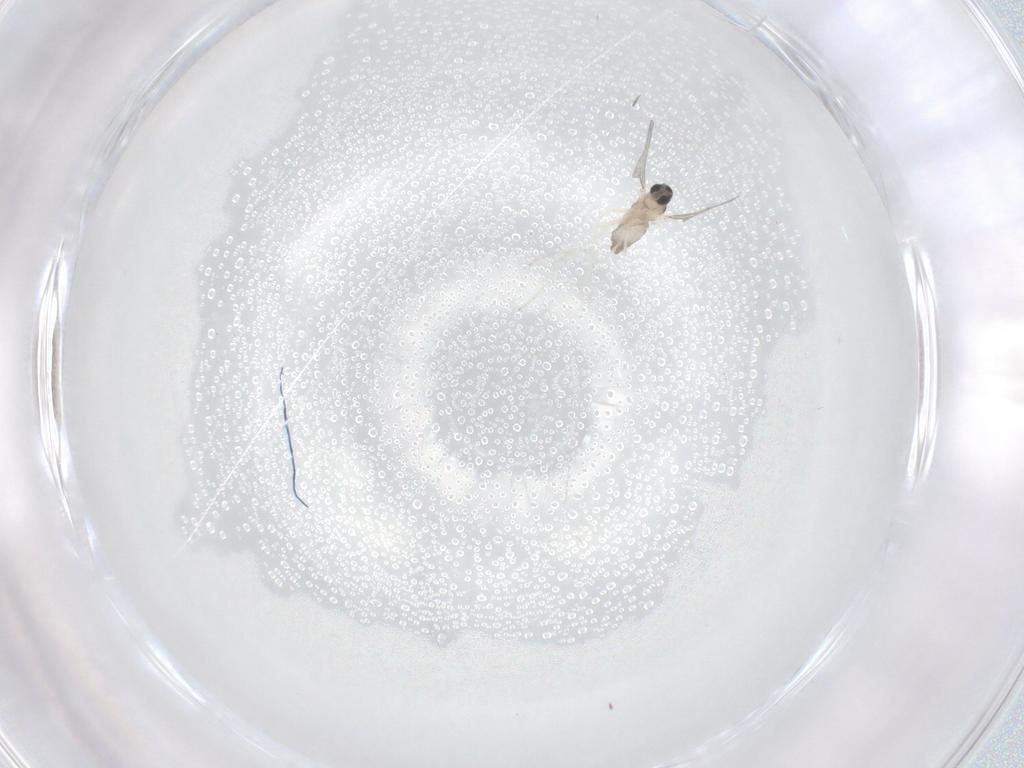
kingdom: Animalia
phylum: Arthropoda
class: Insecta
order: Diptera
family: Cecidomyiidae
